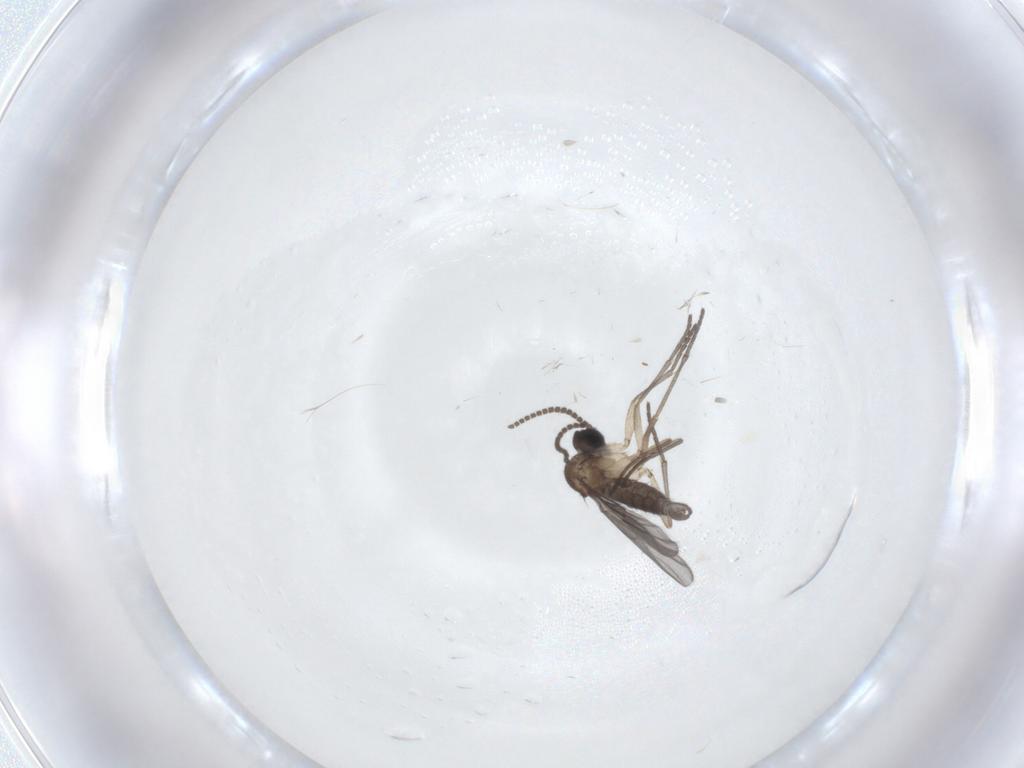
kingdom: Animalia
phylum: Arthropoda
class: Insecta
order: Diptera
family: Sciaridae
